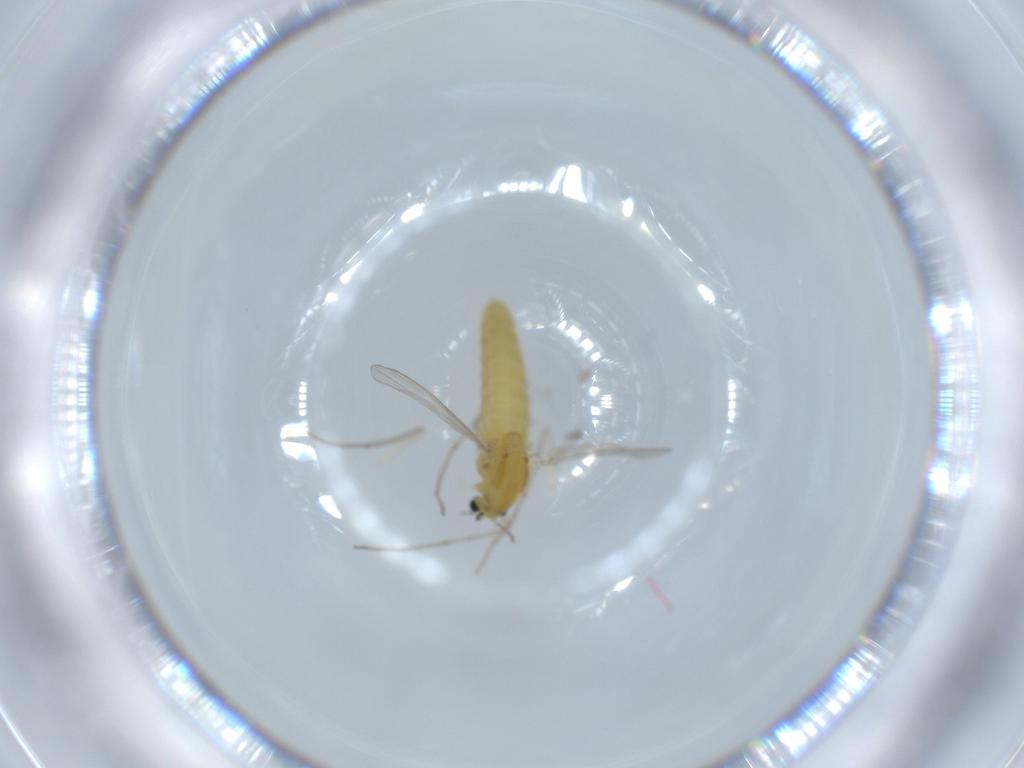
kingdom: Animalia
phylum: Arthropoda
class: Insecta
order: Diptera
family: Chironomidae
